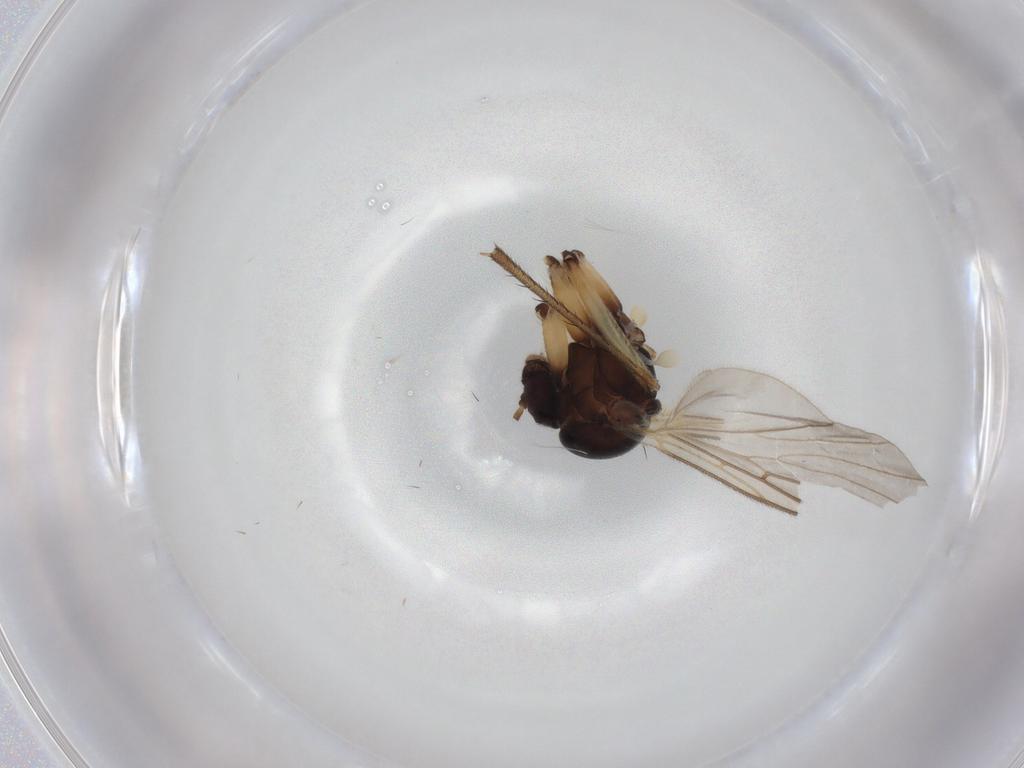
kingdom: Animalia
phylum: Arthropoda
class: Insecta
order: Diptera
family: Mycetophilidae
